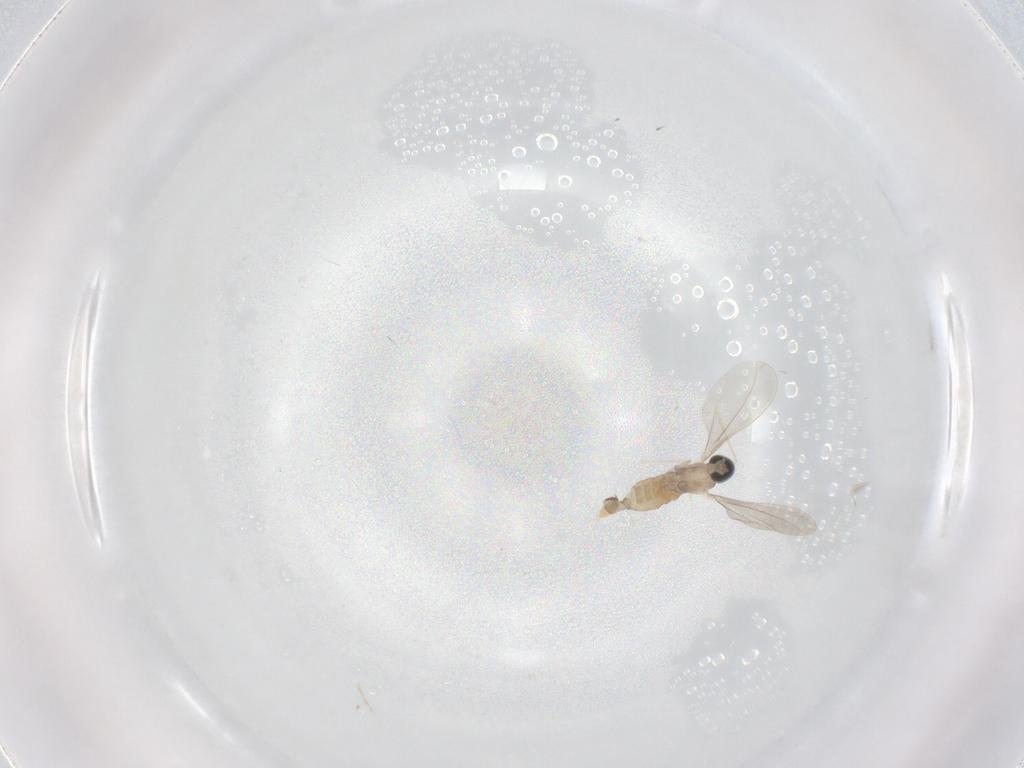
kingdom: Animalia
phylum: Arthropoda
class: Insecta
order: Diptera
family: Cecidomyiidae
